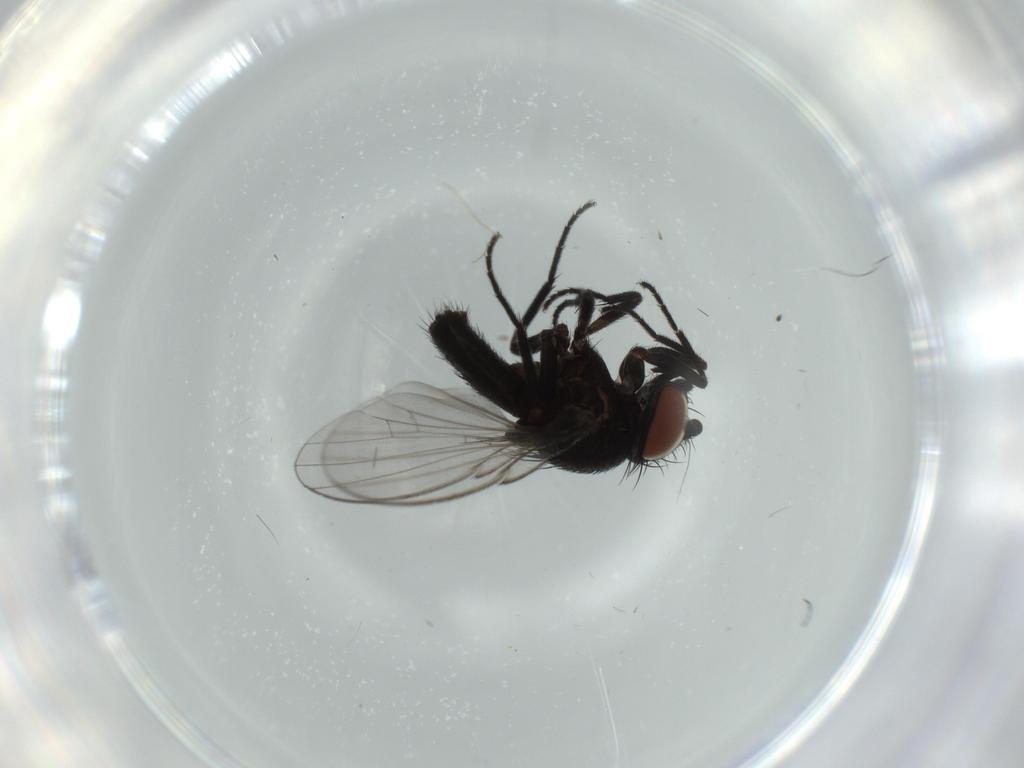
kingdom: Animalia
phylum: Arthropoda
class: Insecta
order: Diptera
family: Milichiidae
